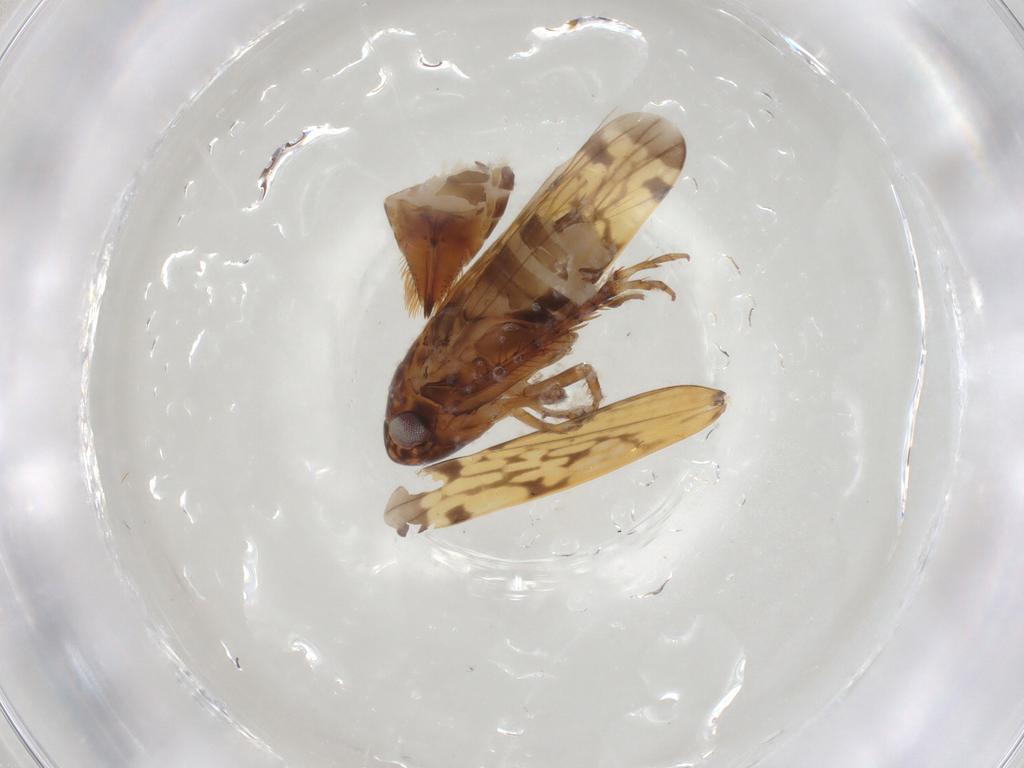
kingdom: Animalia
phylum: Arthropoda
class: Insecta
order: Hemiptera
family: Cicadellidae
